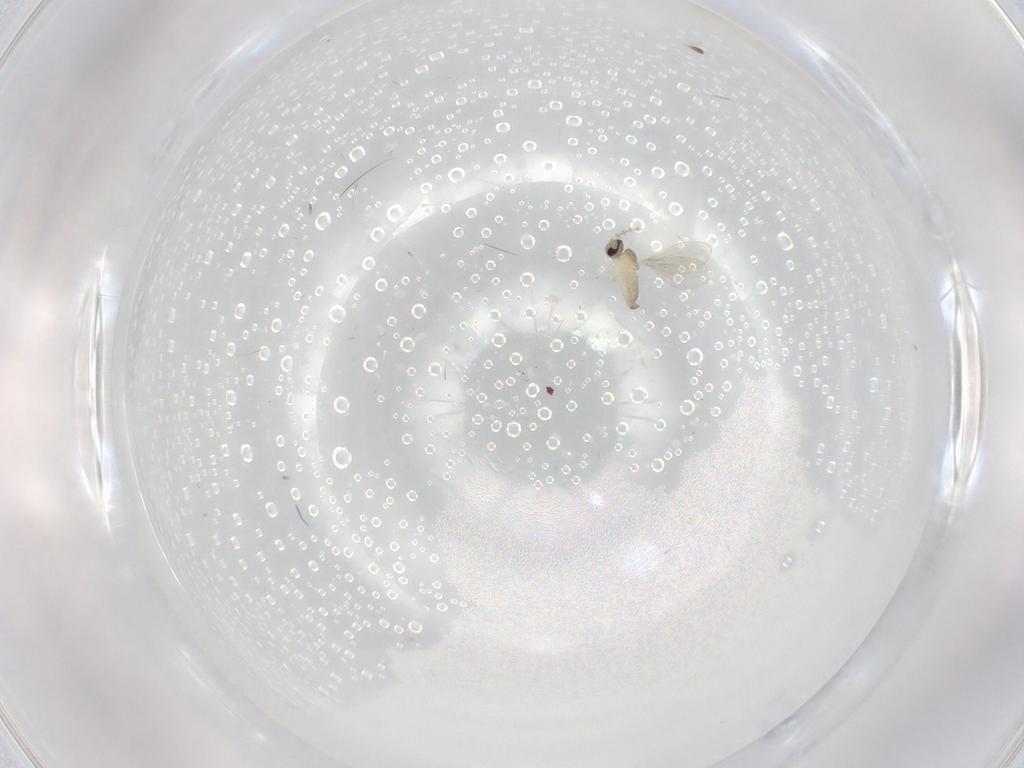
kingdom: Animalia
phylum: Arthropoda
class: Insecta
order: Diptera
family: Cecidomyiidae
